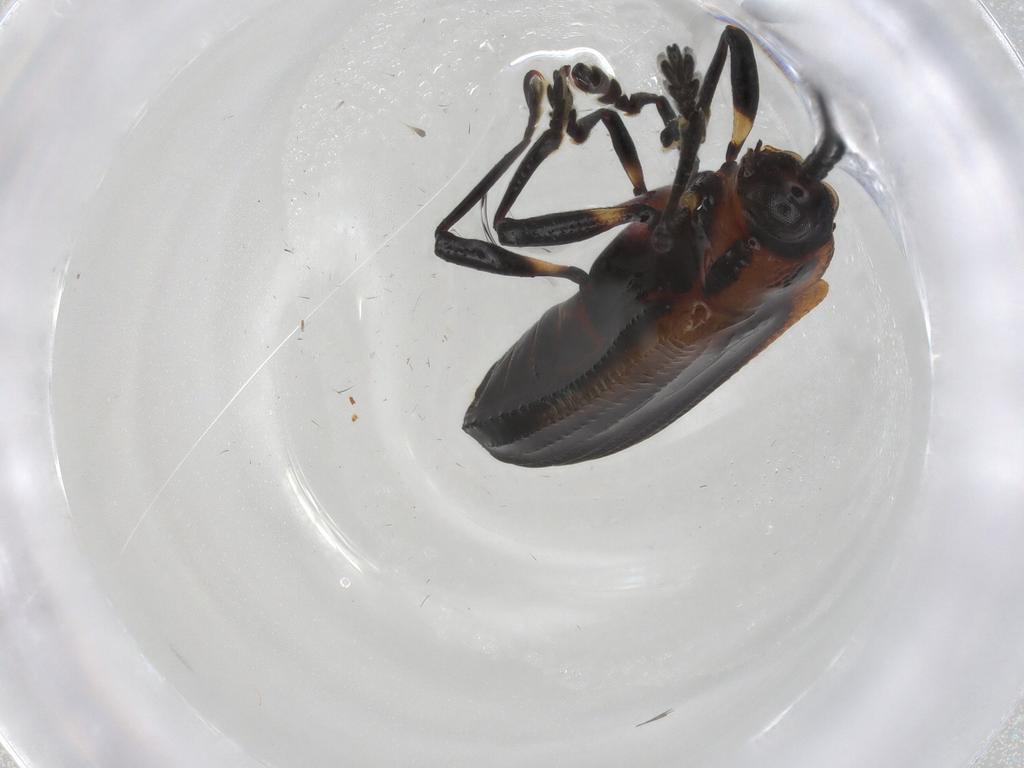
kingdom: Animalia
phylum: Arthropoda
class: Insecta
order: Coleoptera
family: Chrysomelidae
